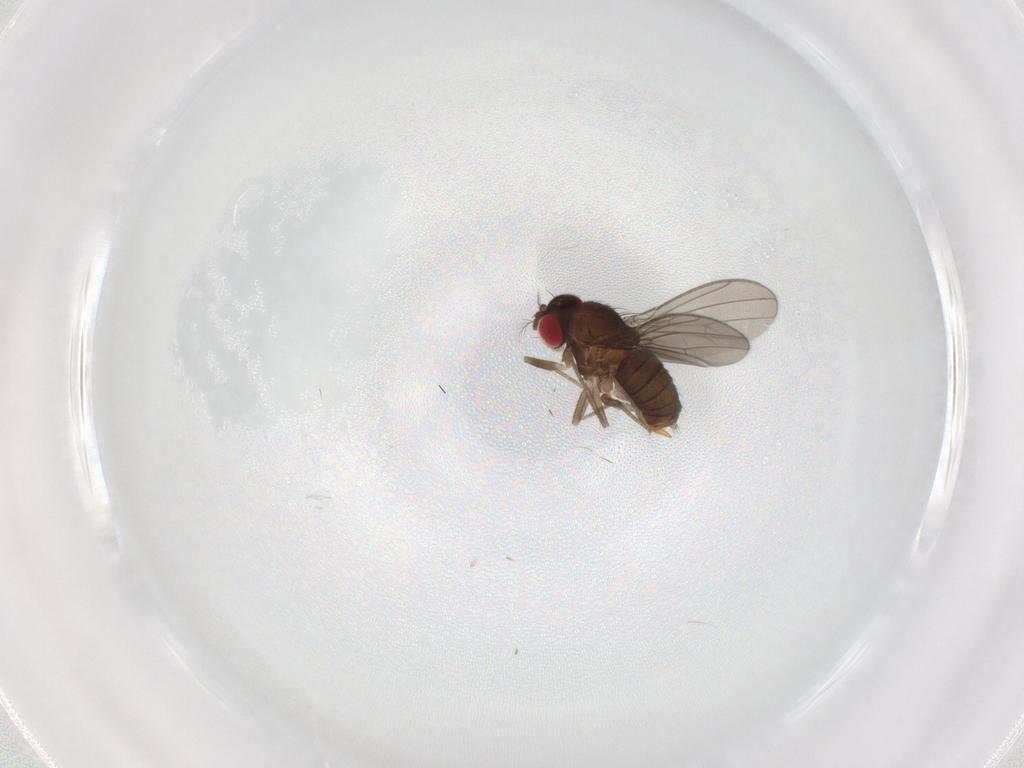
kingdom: Animalia
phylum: Arthropoda
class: Insecta
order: Diptera
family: Drosophilidae
